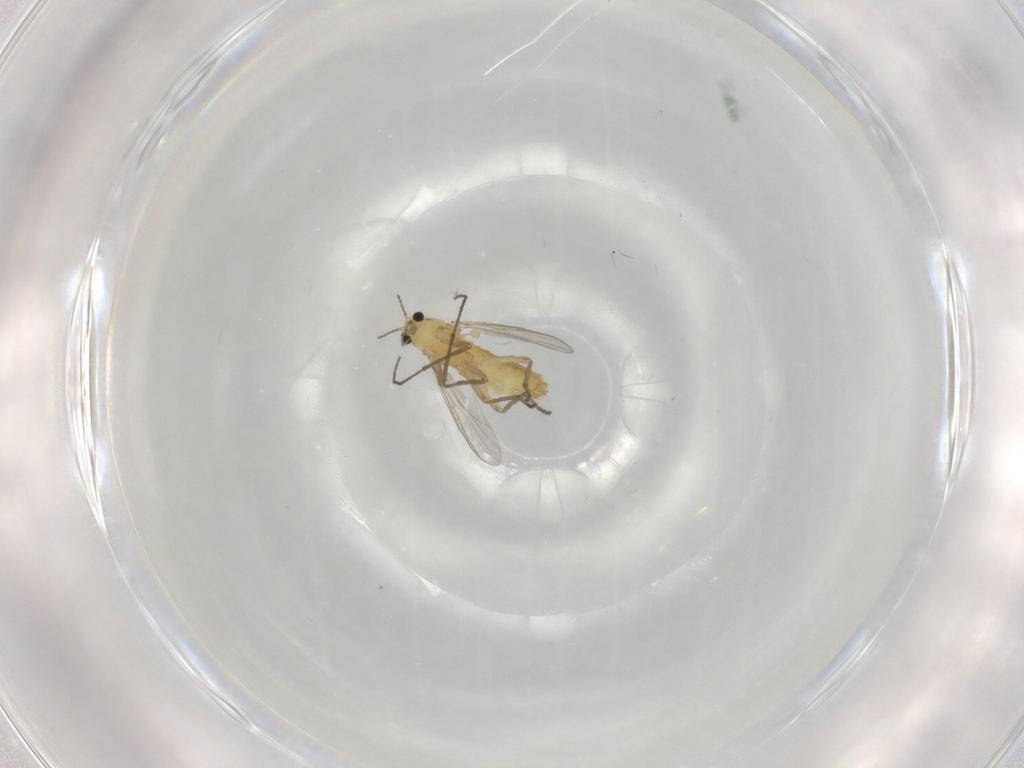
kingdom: Animalia
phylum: Arthropoda
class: Insecta
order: Diptera
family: Chironomidae
